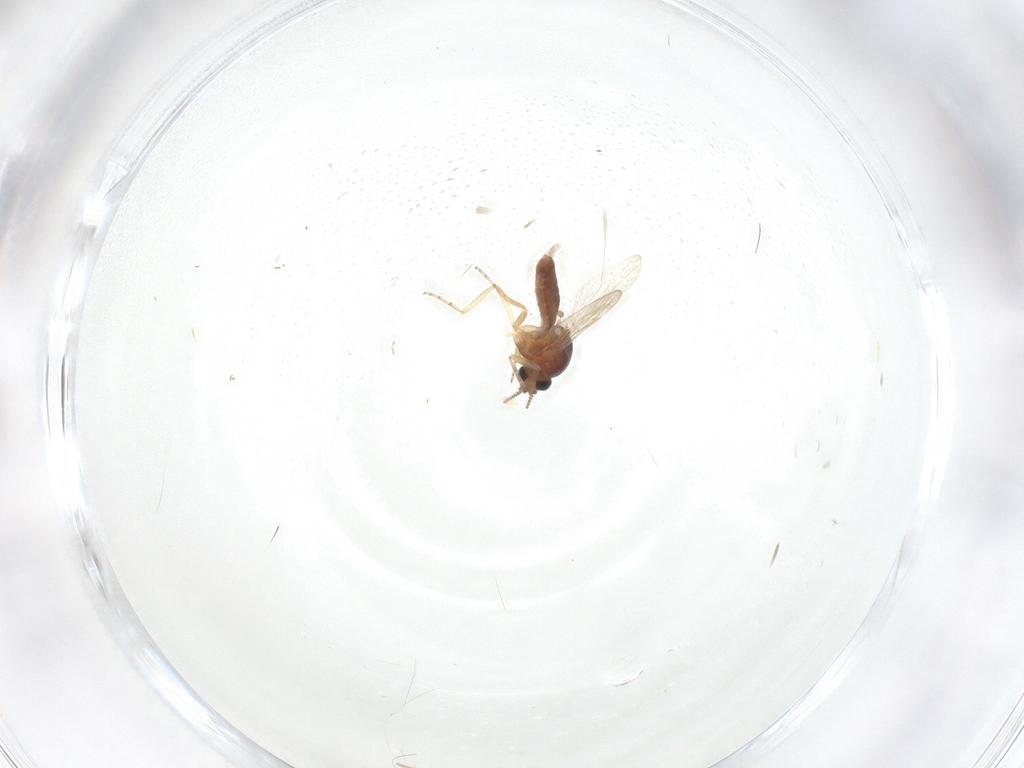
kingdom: Animalia
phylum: Arthropoda
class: Insecta
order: Diptera
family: Ceratopogonidae
